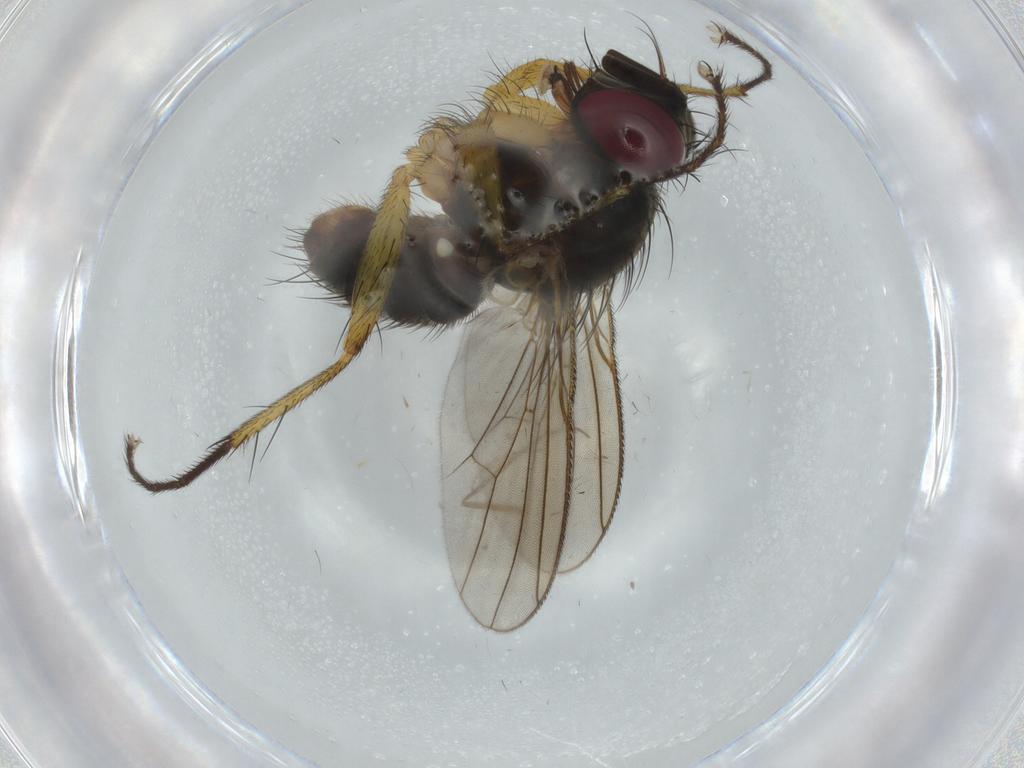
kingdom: Animalia
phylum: Arthropoda
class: Insecta
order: Diptera
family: Muscidae
